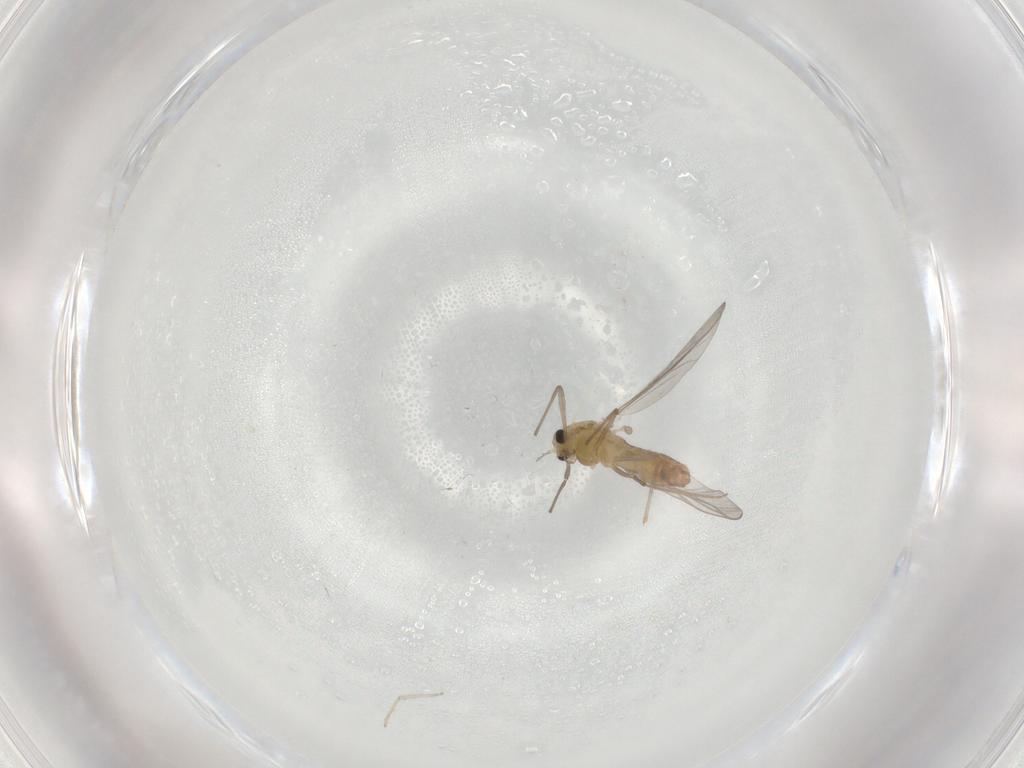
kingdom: Animalia
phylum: Arthropoda
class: Insecta
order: Diptera
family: Chironomidae
